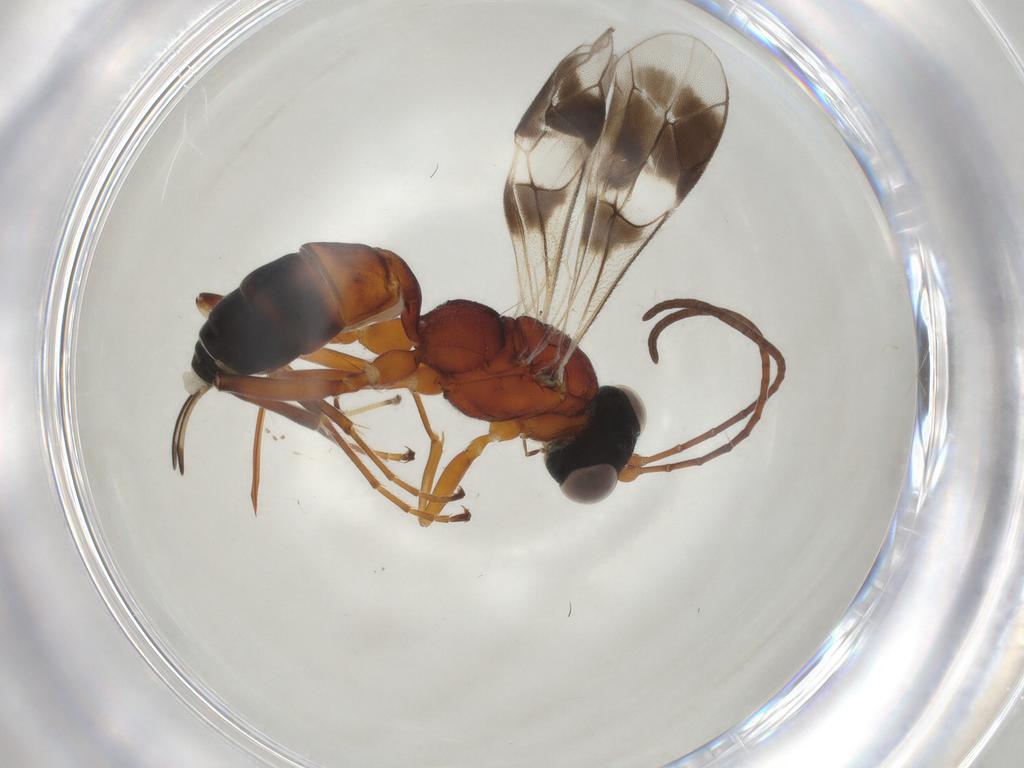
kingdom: Animalia
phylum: Arthropoda
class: Insecta
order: Hymenoptera
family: Ichneumonidae
